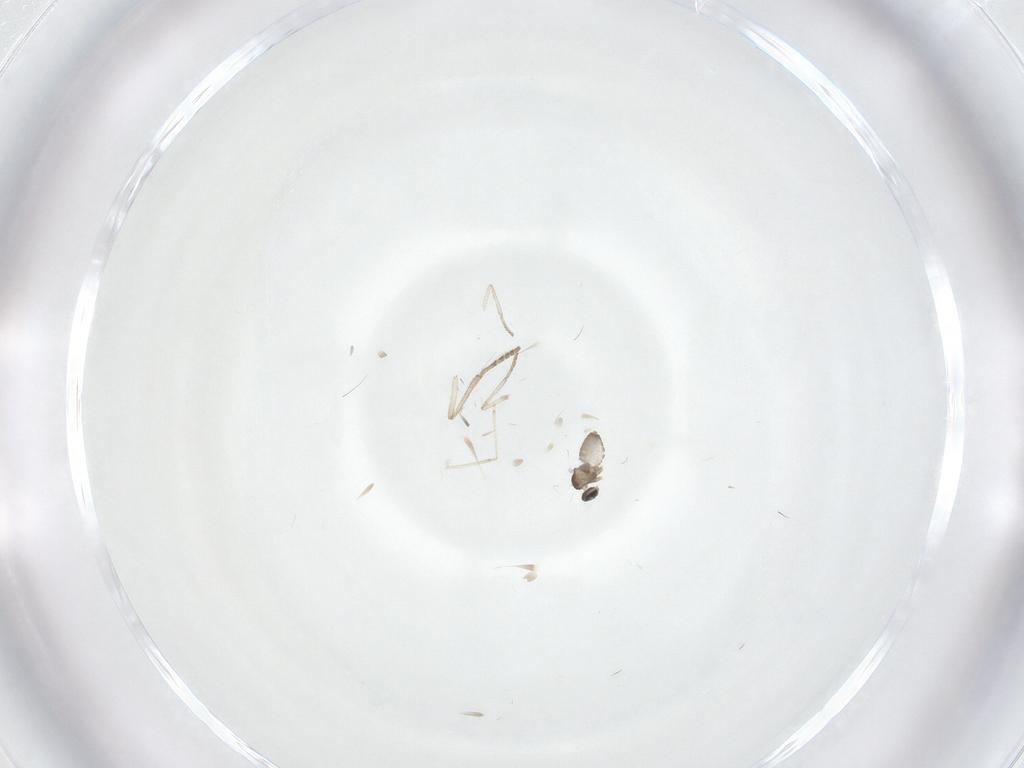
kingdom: Animalia
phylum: Arthropoda
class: Insecta
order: Diptera
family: Cecidomyiidae
